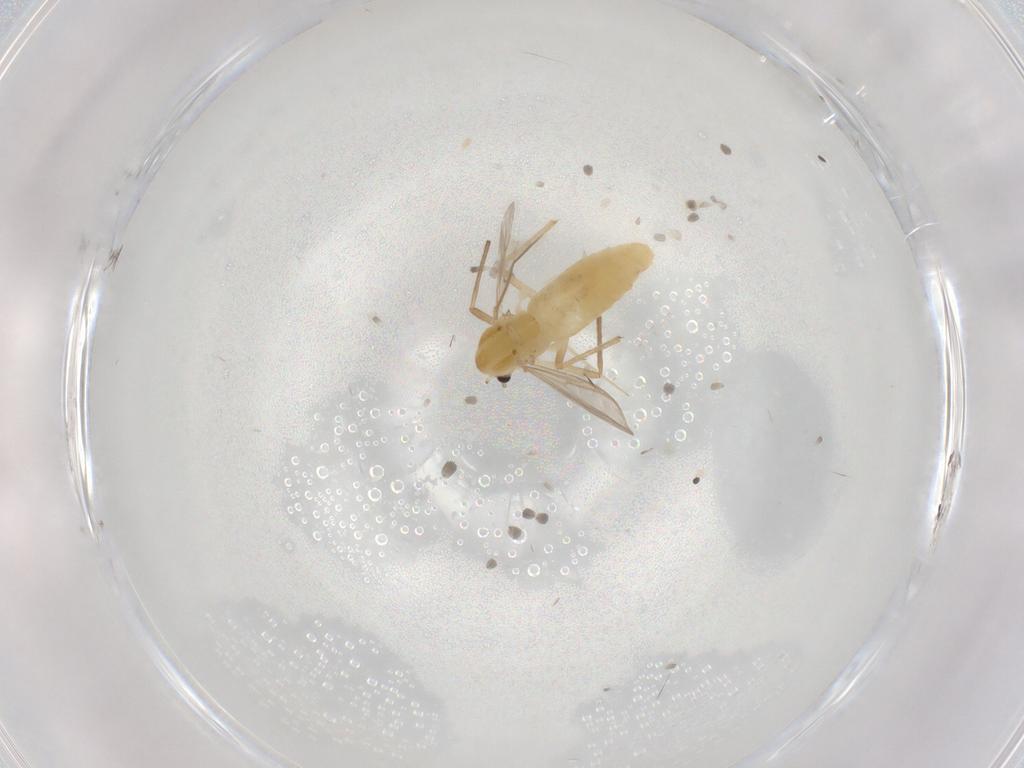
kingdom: Animalia
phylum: Arthropoda
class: Insecta
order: Diptera
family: Chironomidae
